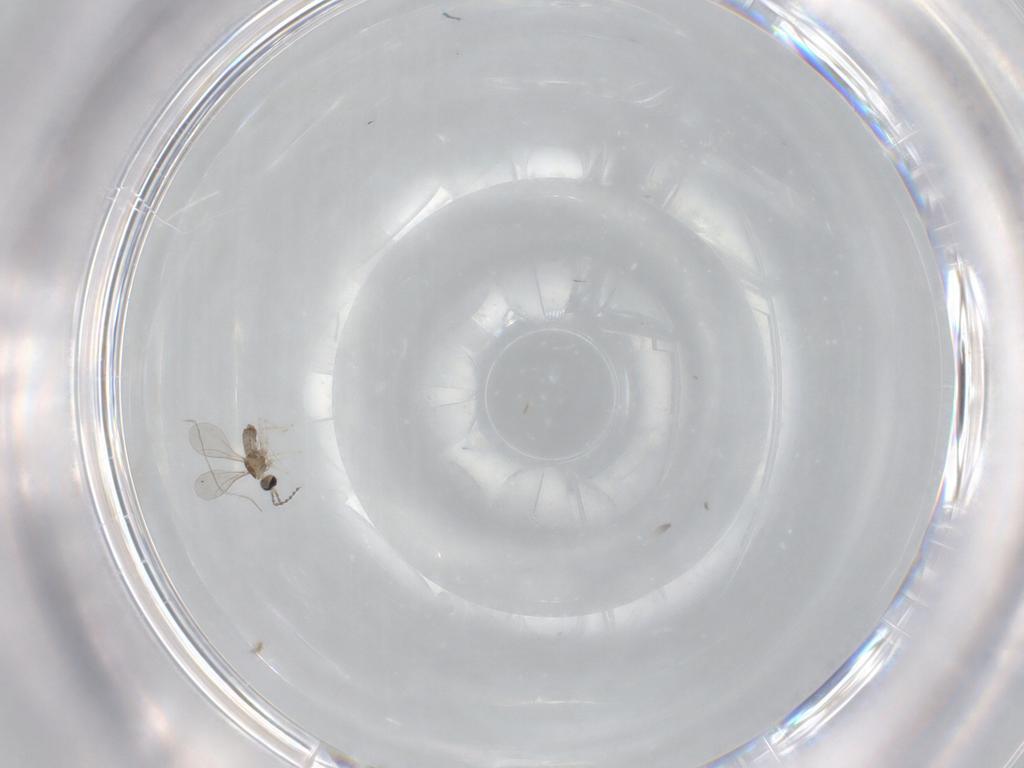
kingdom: Animalia
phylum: Arthropoda
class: Insecta
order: Diptera
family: Cecidomyiidae
